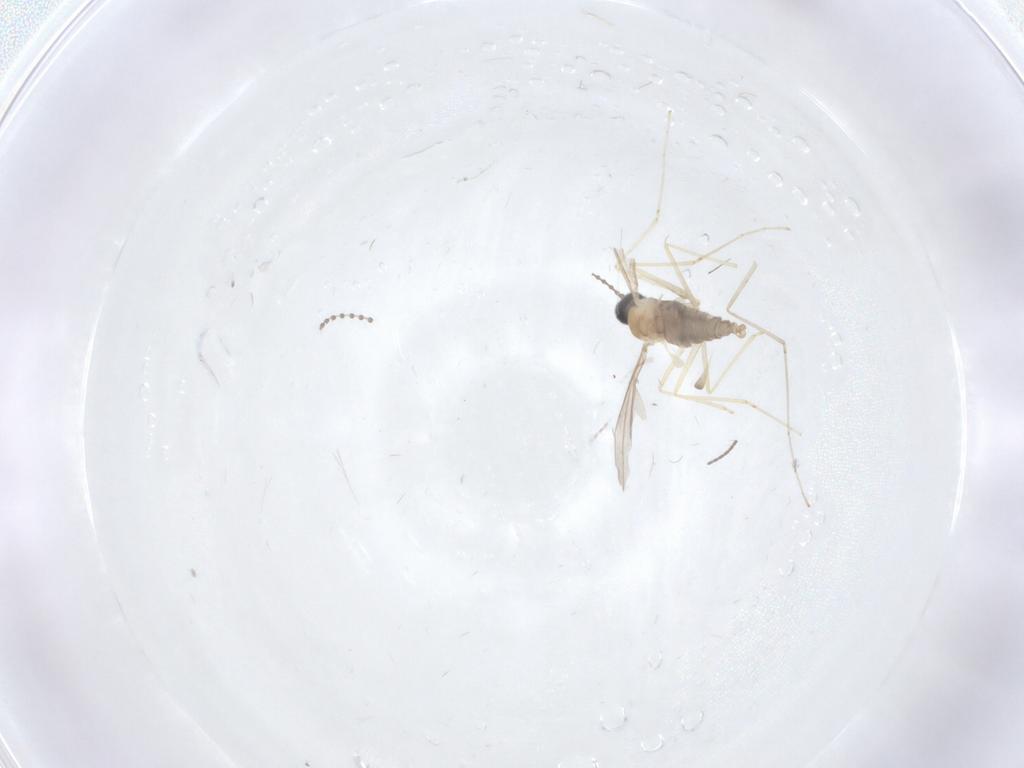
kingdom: Animalia
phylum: Arthropoda
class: Insecta
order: Diptera
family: Cecidomyiidae
